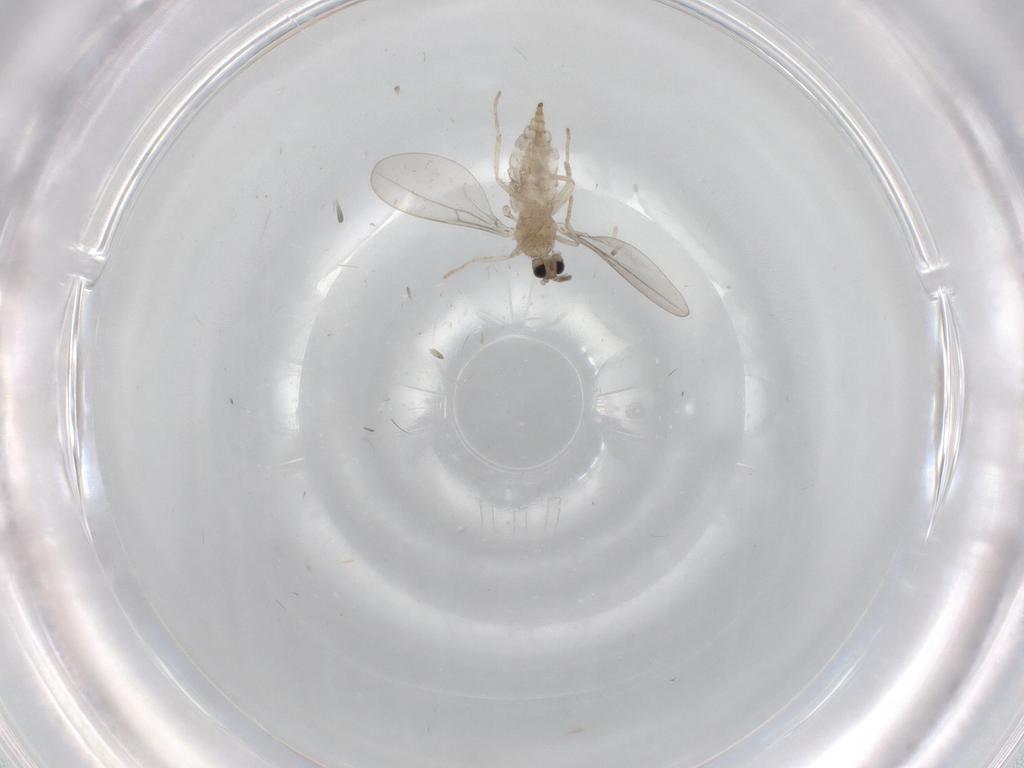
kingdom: Animalia
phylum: Arthropoda
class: Insecta
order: Diptera
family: Cecidomyiidae
